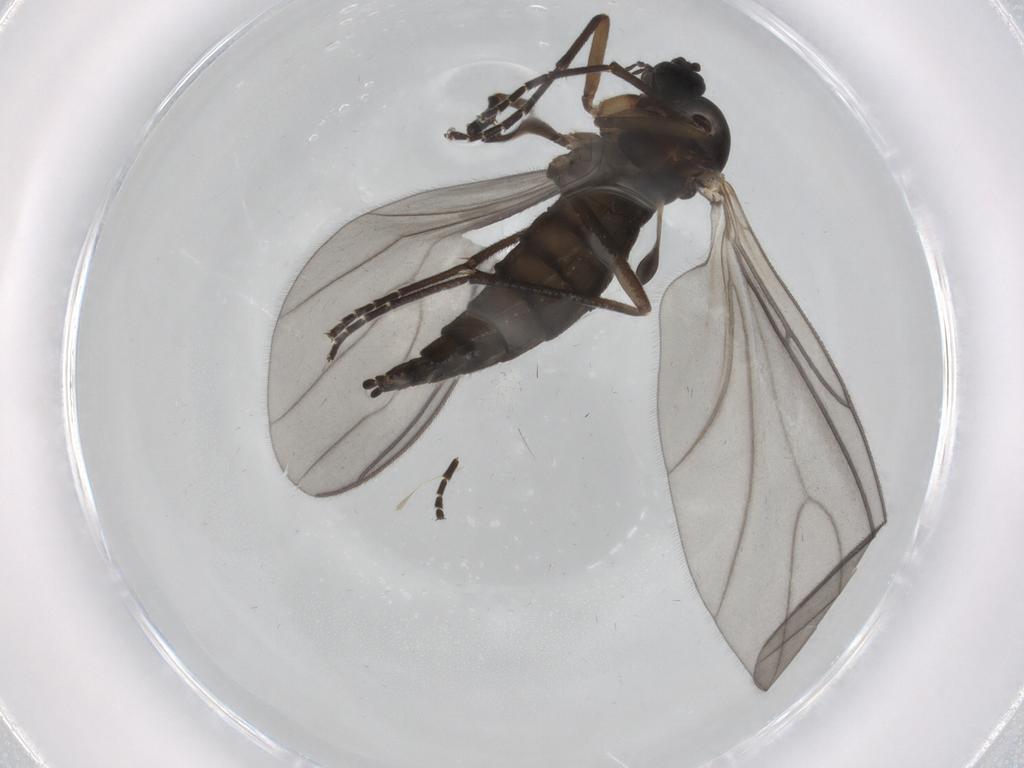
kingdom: Animalia
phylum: Arthropoda
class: Insecta
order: Diptera
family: Sciaridae
